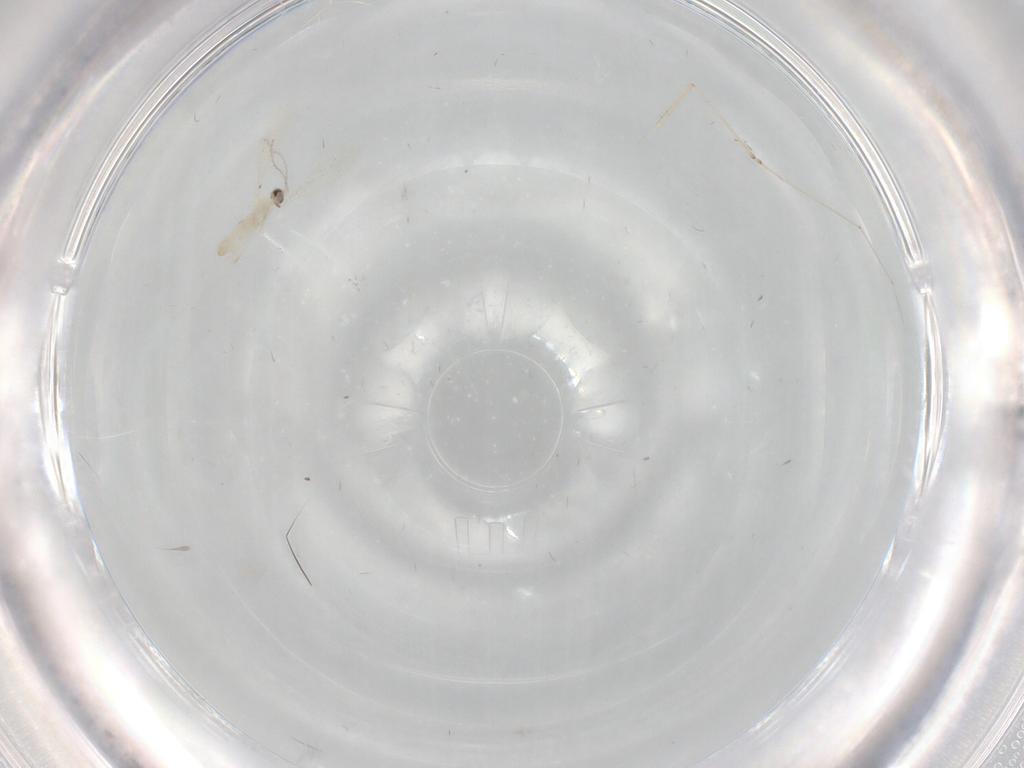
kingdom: Animalia
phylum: Arthropoda
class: Insecta
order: Diptera
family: Cecidomyiidae
